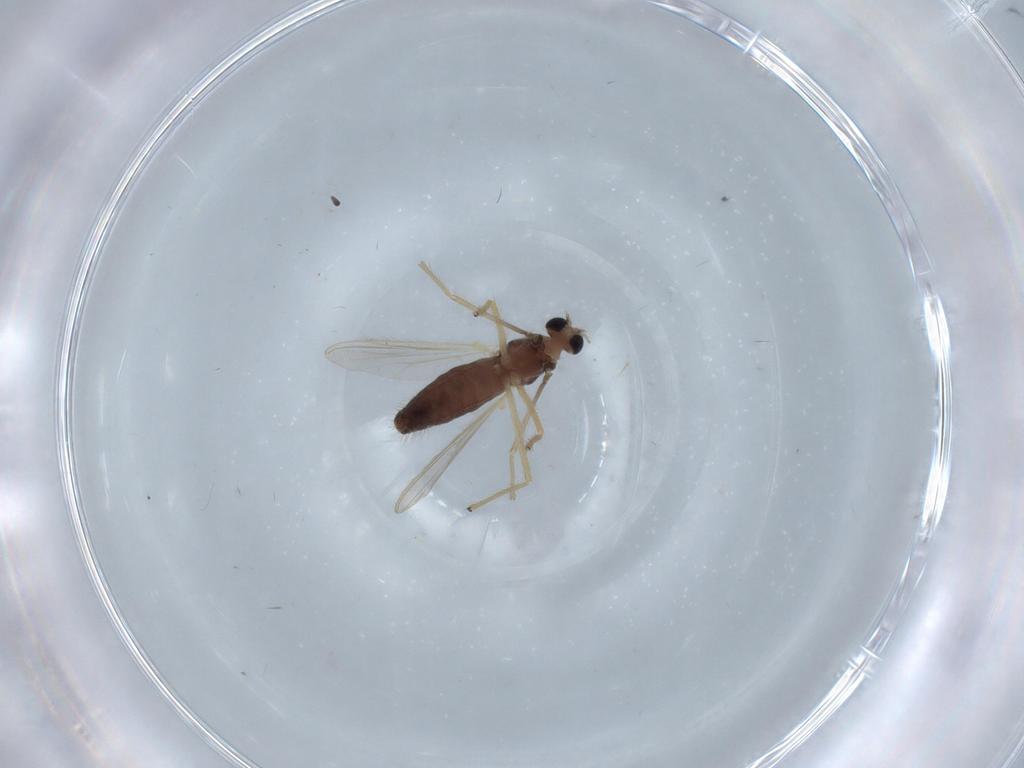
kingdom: Animalia
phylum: Arthropoda
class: Insecta
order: Diptera
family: Chironomidae
